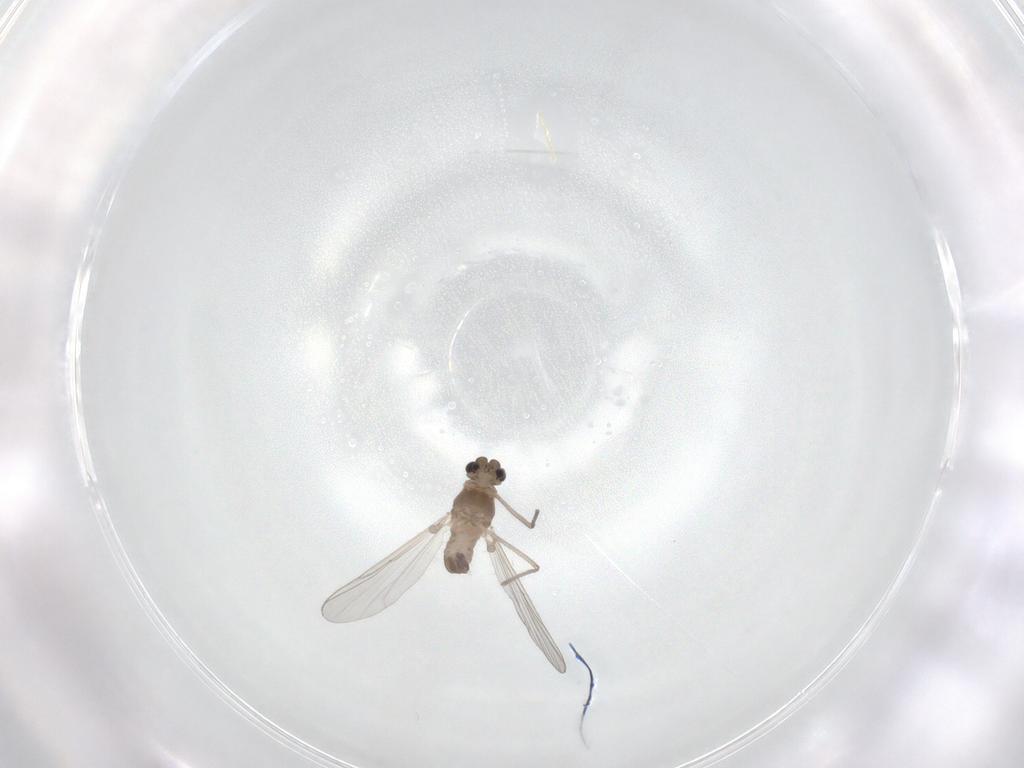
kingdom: Animalia
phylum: Arthropoda
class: Insecta
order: Diptera
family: Chironomidae
